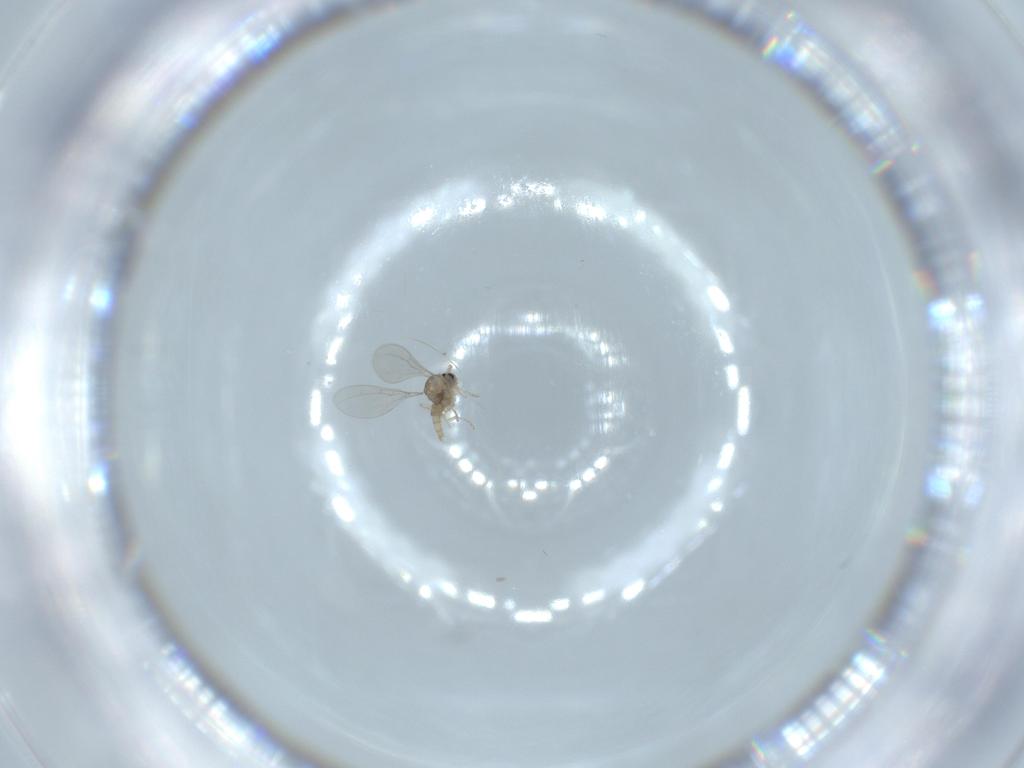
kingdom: Animalia
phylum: Arthropoda
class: Insecta
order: Diptera
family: Cecidomyiidae
